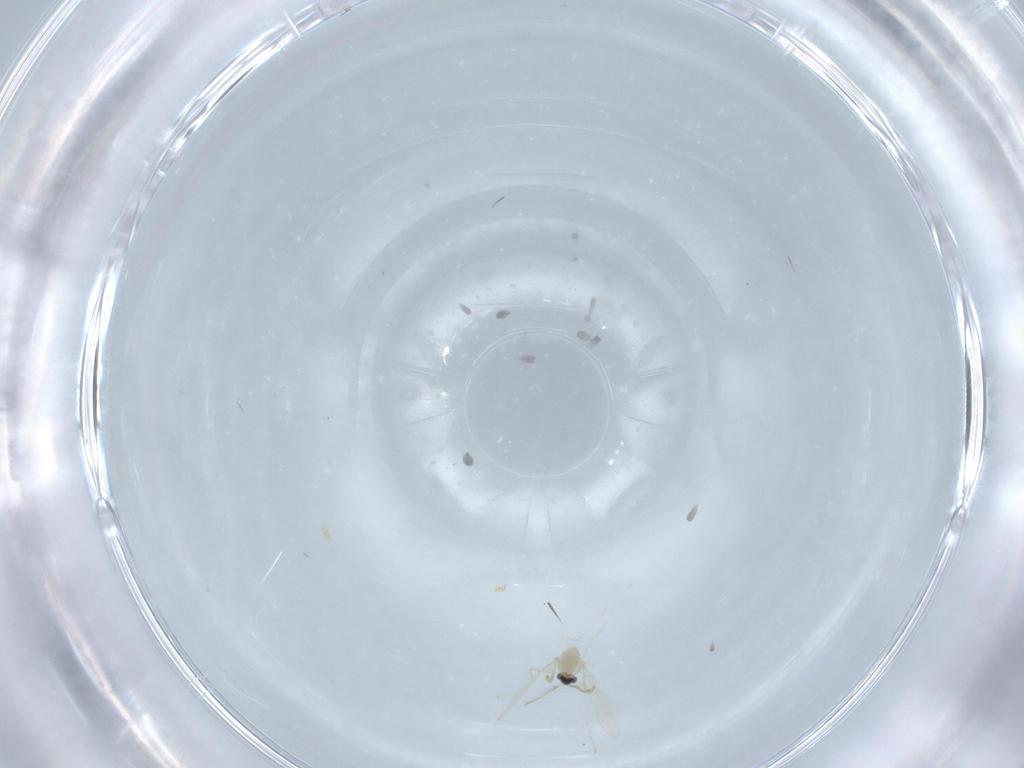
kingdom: Animalia
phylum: Arthropoda
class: Insecta
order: Diptera
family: Cecidomyiidae
